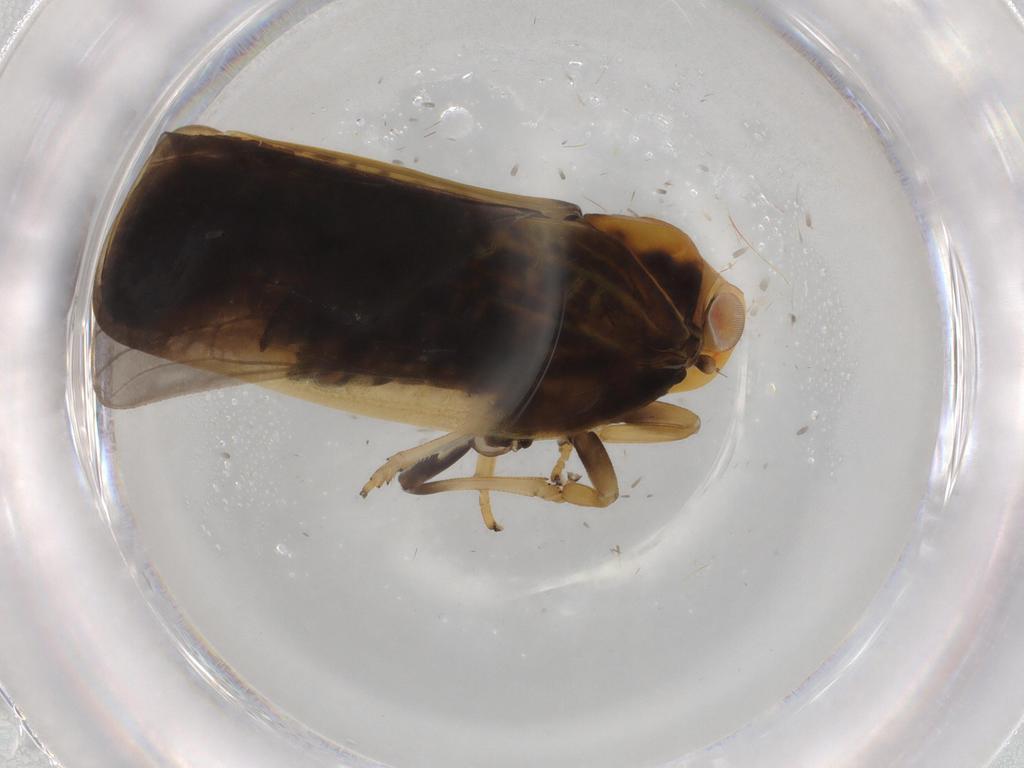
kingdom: Animalia
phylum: Arthropoda
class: Insecta
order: Hemiptera
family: Nogodinidae
